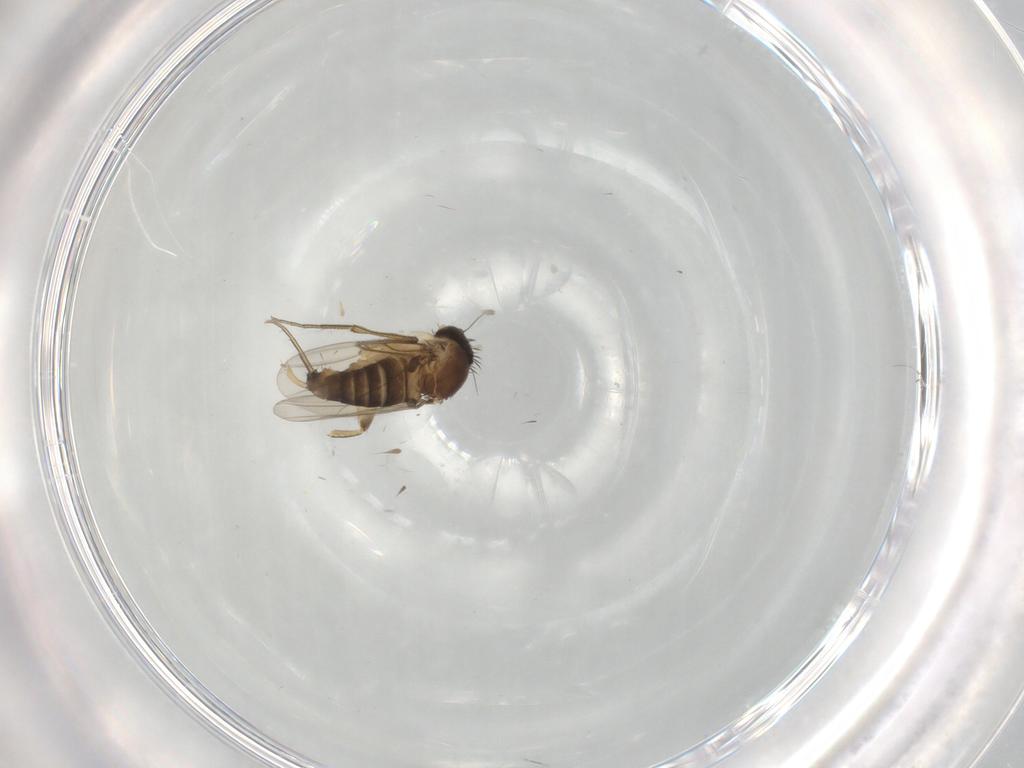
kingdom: Animalia
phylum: Arthropoda
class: Insecta
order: Diptera
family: Phoridae
